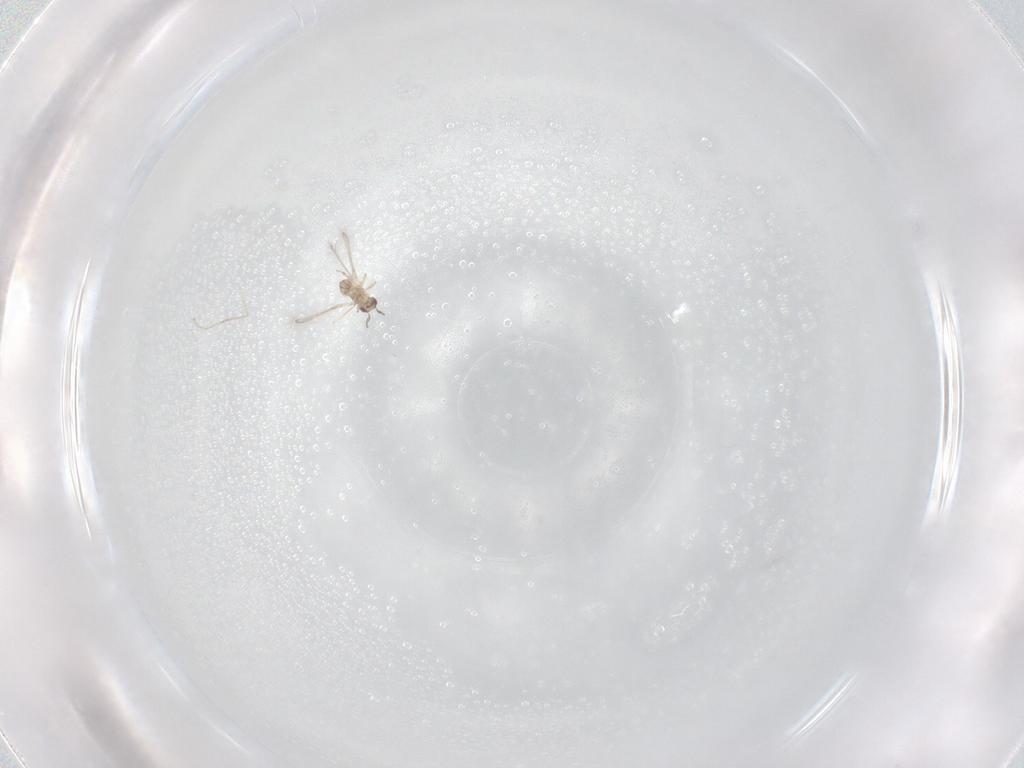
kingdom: Animalia
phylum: Arthropoda
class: Insecta
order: Hymenoptera
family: Mymaridae
